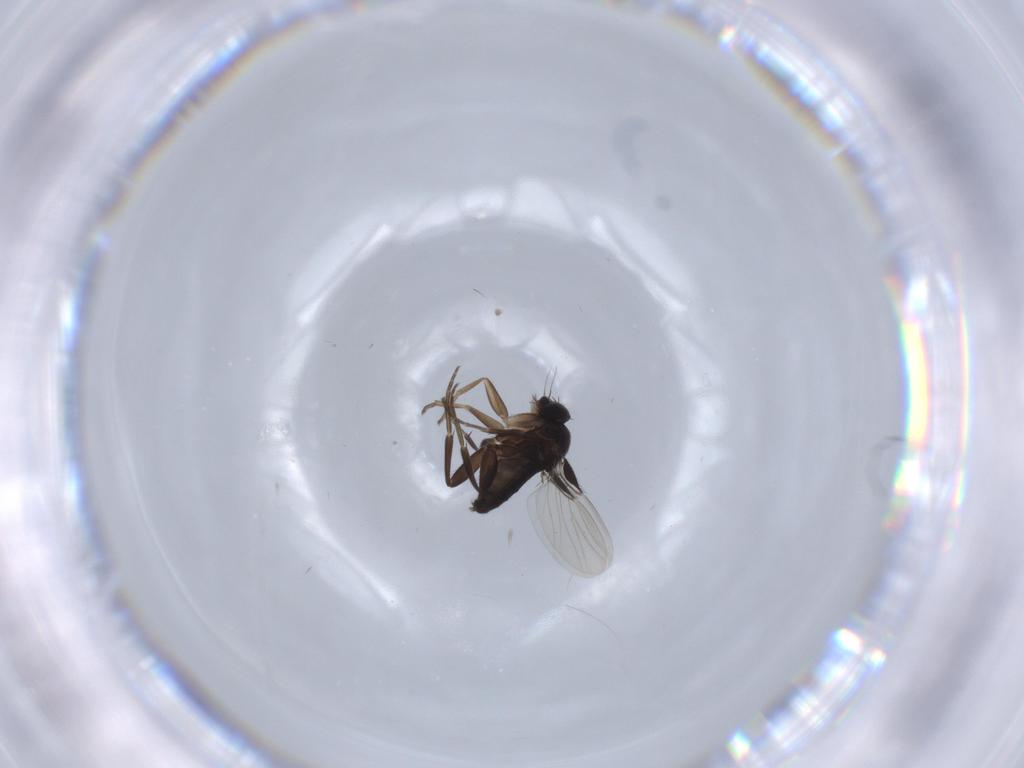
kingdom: Animalia
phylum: Arthropoda
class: Insecta
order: Diptera
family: Phoridae
